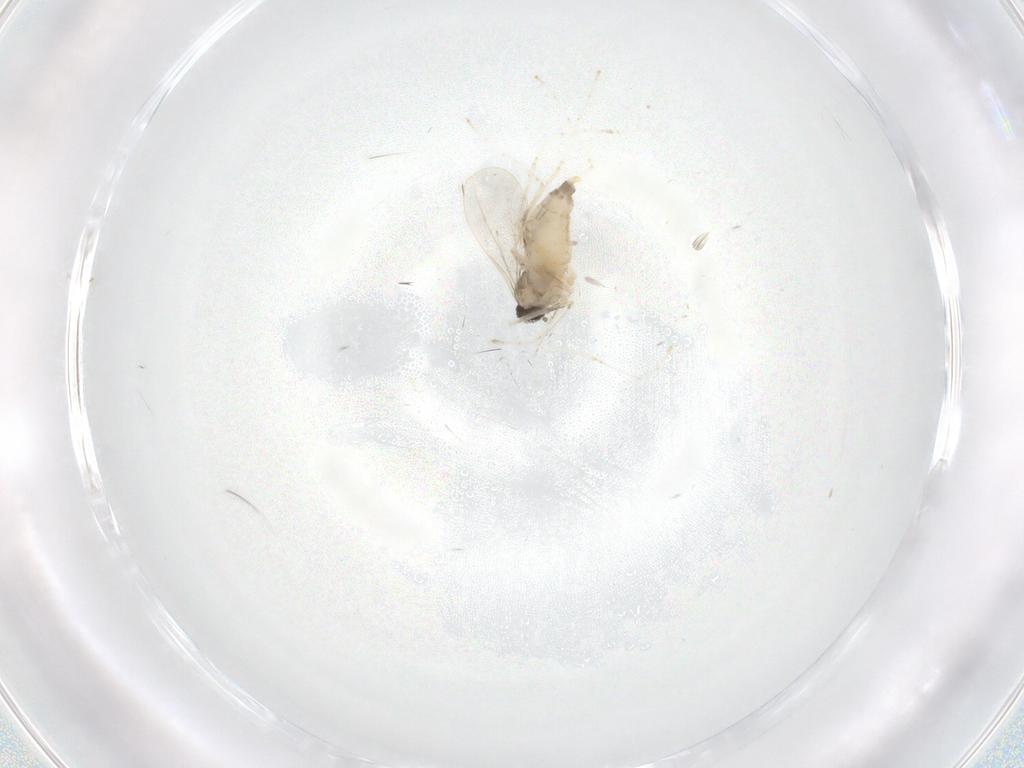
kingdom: Animalia
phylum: Arthropoda
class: Insecta
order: Diptera
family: Cecidomyiidae
